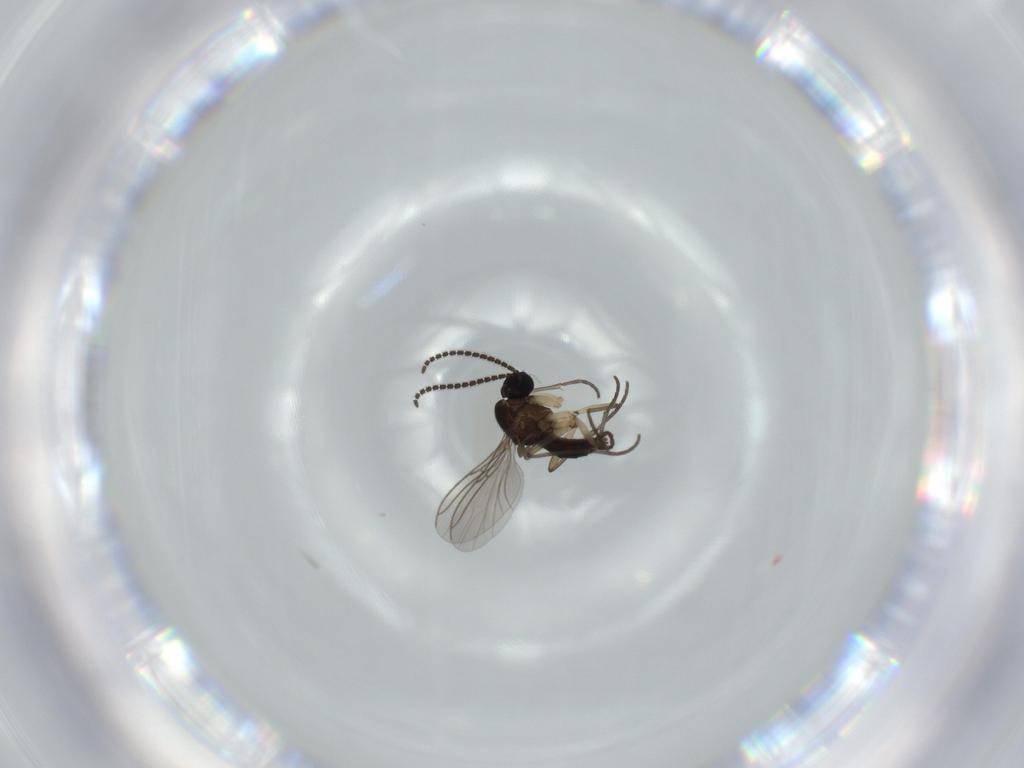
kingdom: Animalia
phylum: Arthropoda
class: Insecta
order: Diptera
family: Sciaridae
